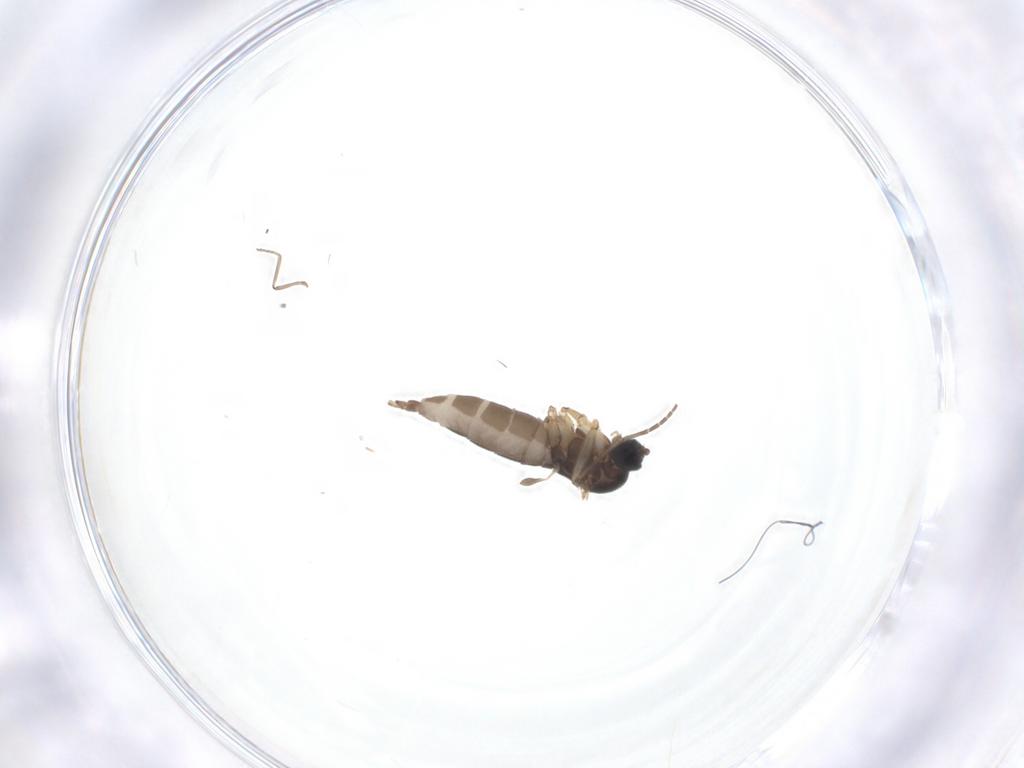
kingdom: Animalia
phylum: Arthropoda
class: Insecta
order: Diptera
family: Sciaridae
